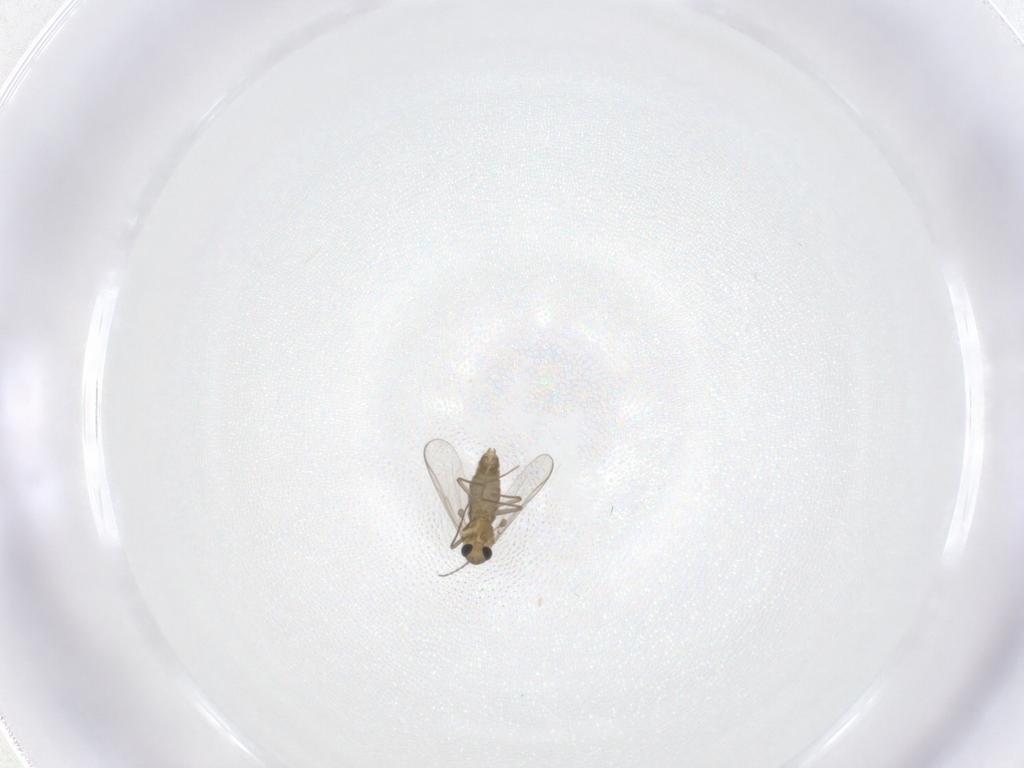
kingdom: Animalia
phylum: Arthropoda
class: Insecta
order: Diptera
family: Chironomidae
